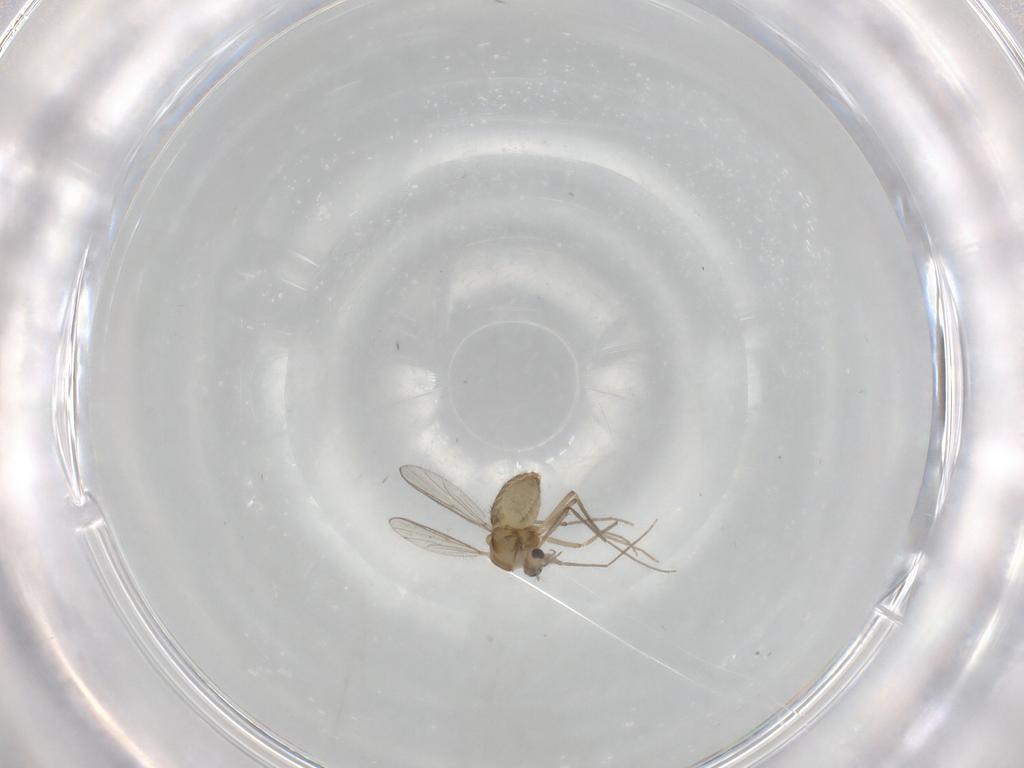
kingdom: Animalia
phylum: Arthropoda
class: Insecta
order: Diptera
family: Chironomidae
